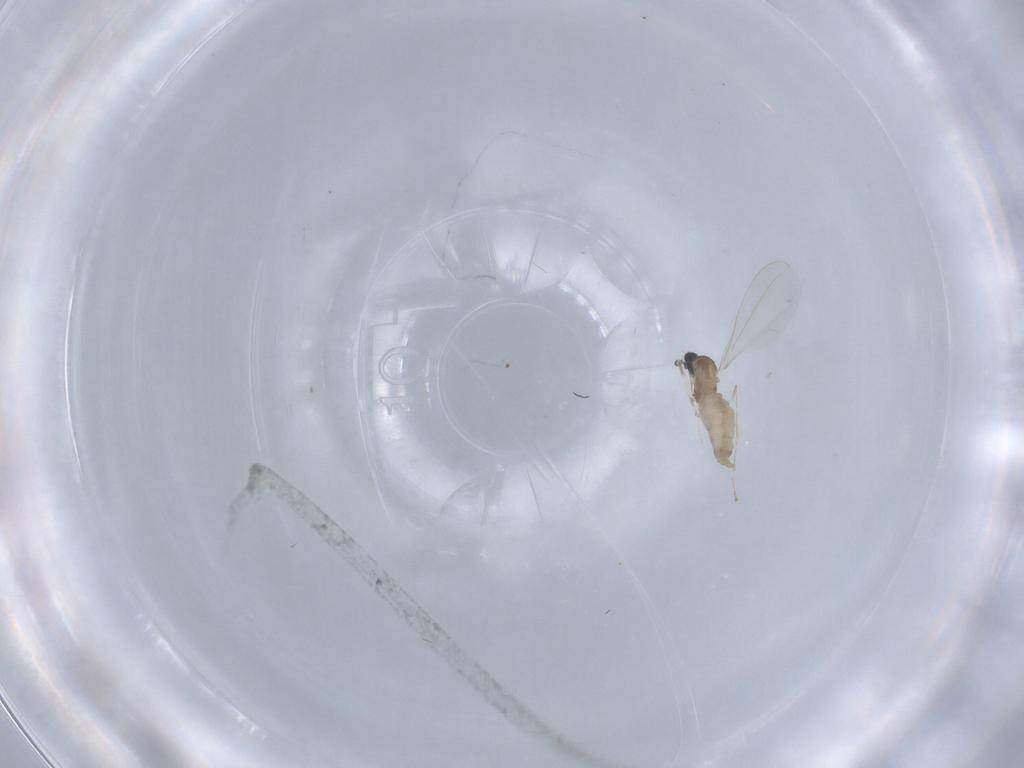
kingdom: Animalia
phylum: Arthropoda
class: Insecta
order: Diptera
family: Cecidomyiidae
